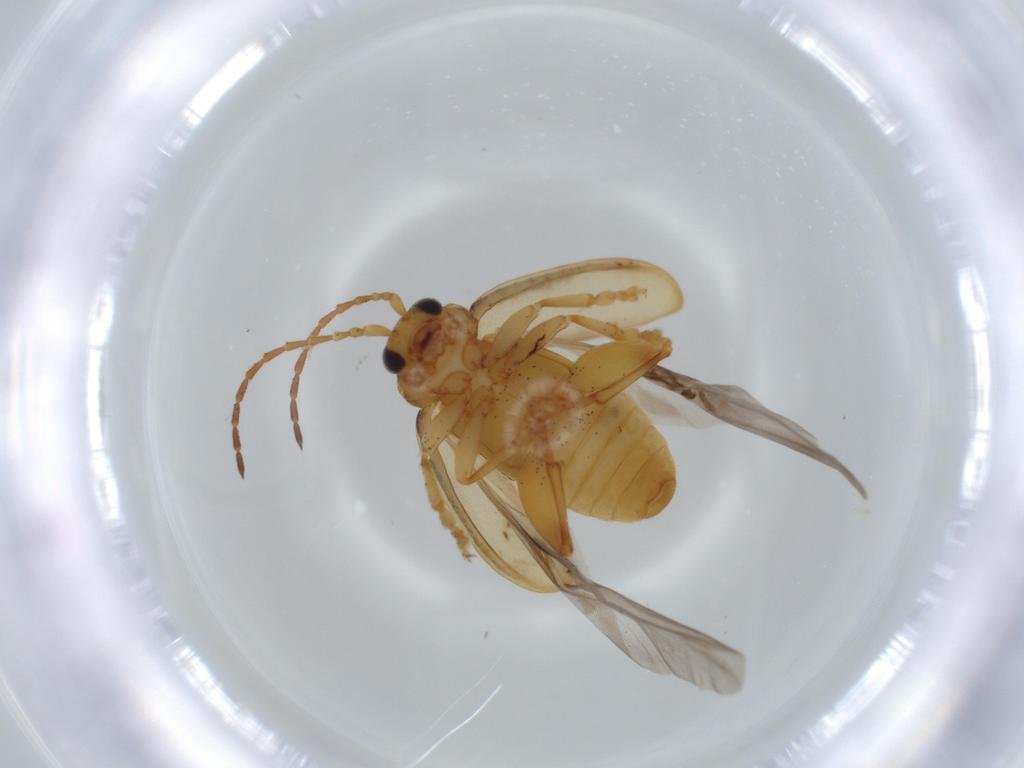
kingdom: Animalia
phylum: Arthropoda
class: Insecta
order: Coleoptera
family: Chrysomelidae
